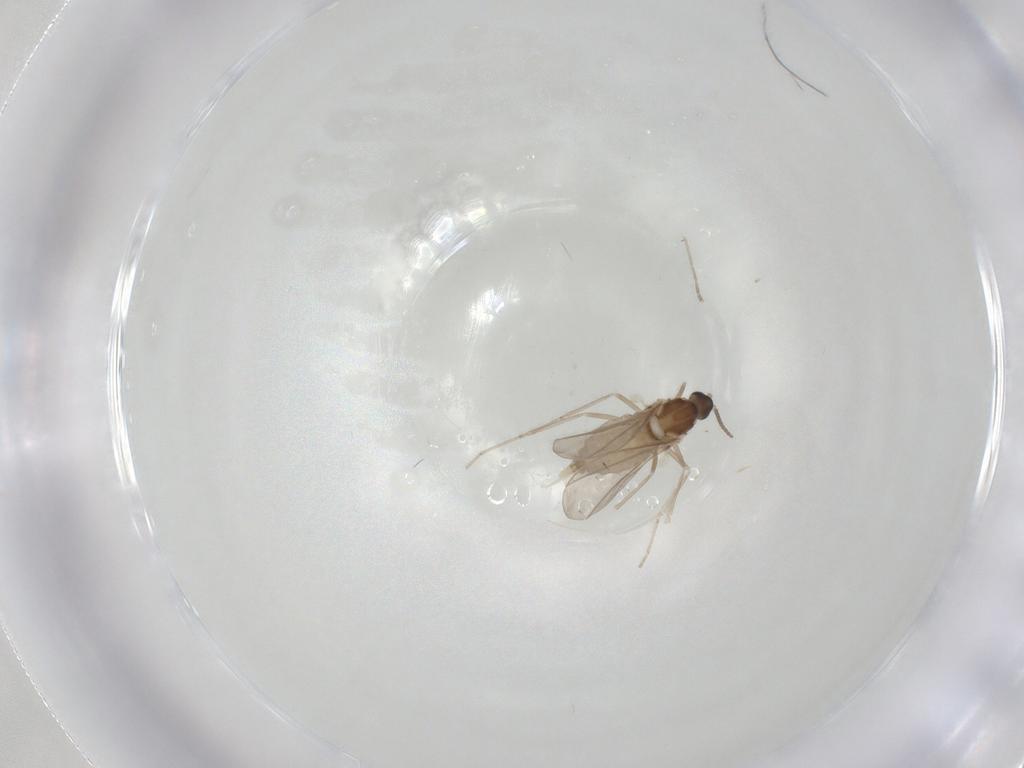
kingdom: Animalia
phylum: Arthropoda
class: Insecta
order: Diptera
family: Cecidomyiidae
